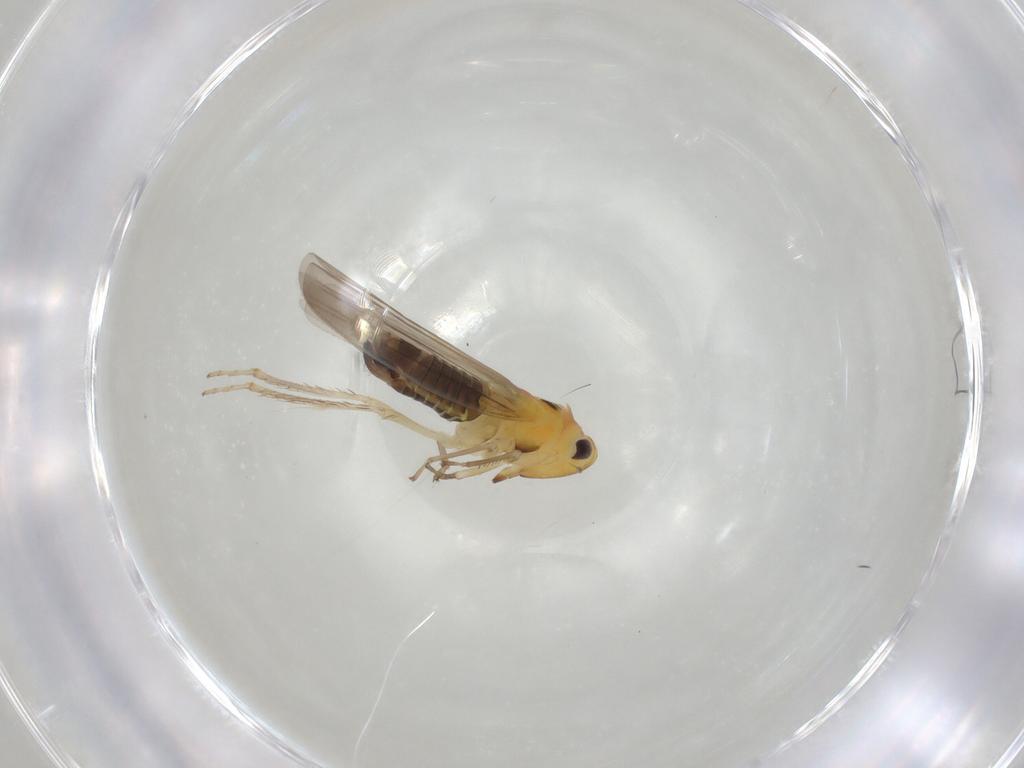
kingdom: Animalia
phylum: Arthropoda
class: Insecta
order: Hemiptera
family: Cicadellidae
